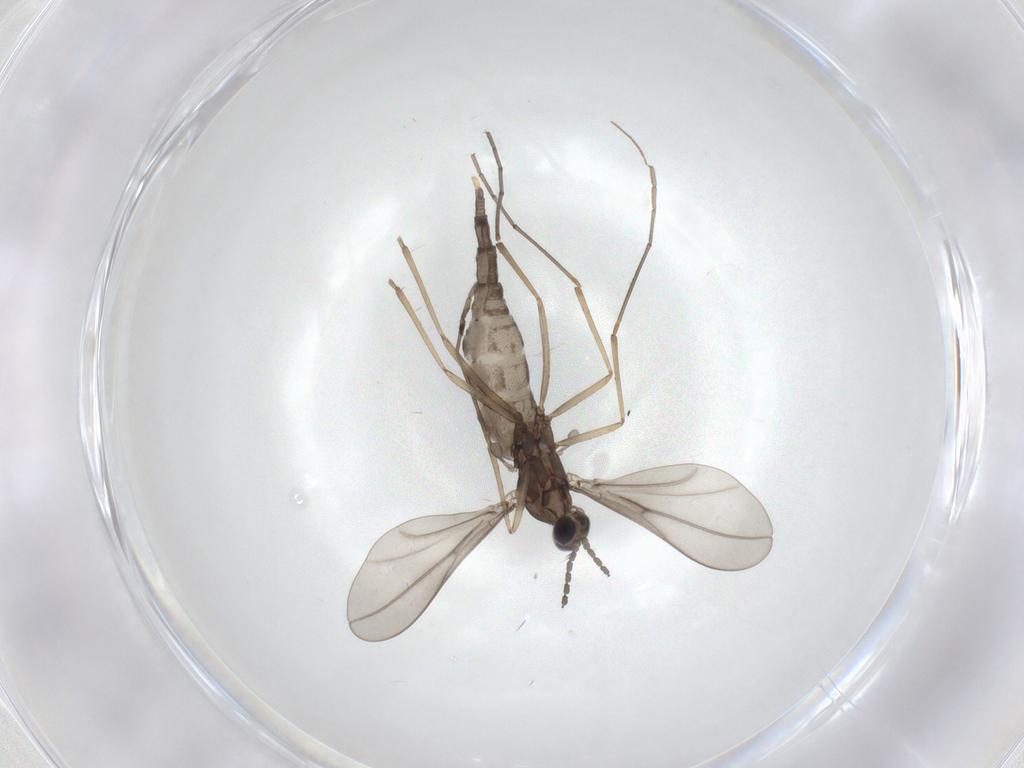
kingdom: Animalia
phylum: Arthropoda
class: Insecta
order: Diptera
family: Cecidomyiidae
